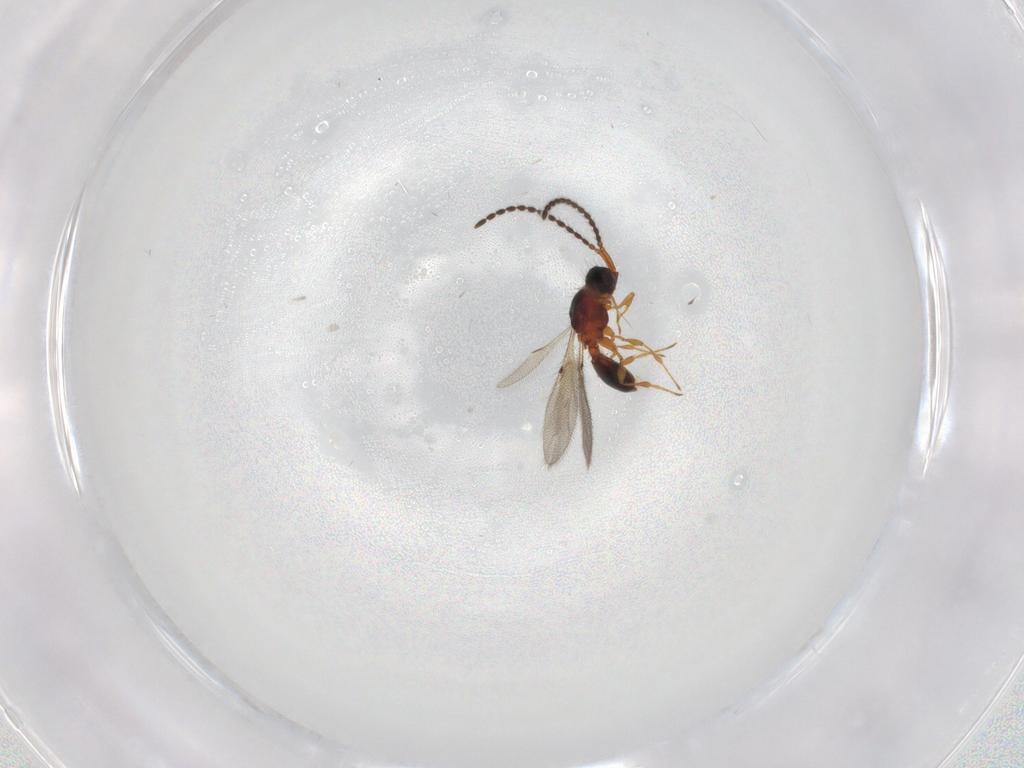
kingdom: Animalia
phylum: Arthropoda
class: Insecta
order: Hymenoptera
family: Diapriidae
